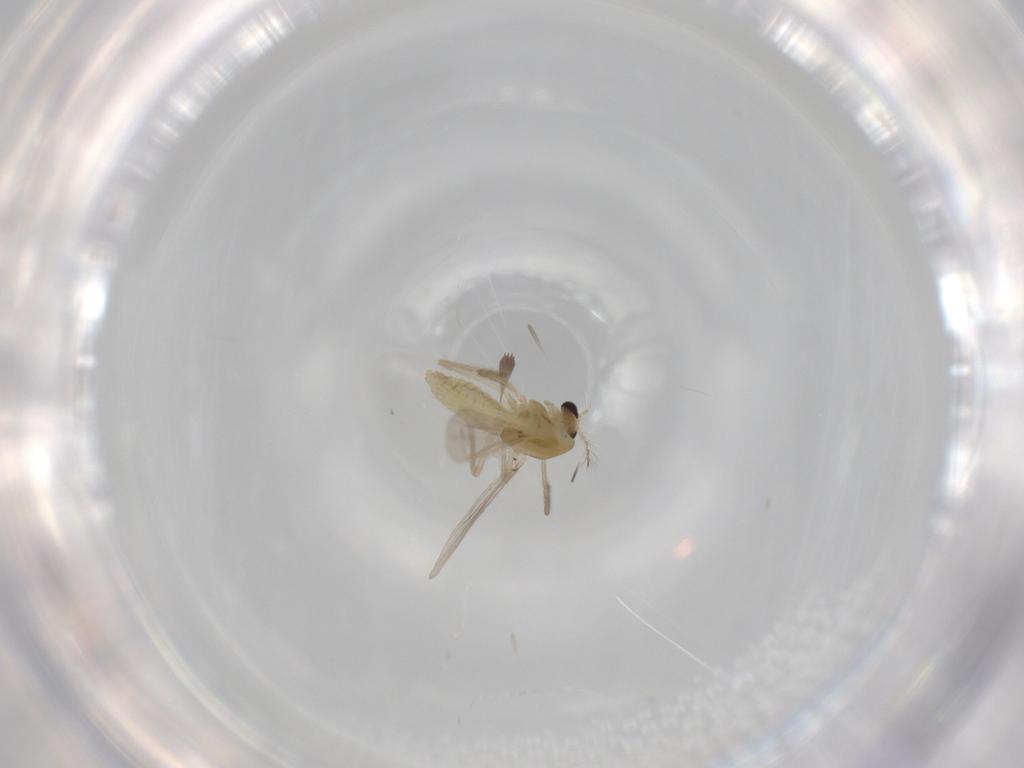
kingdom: Animalia
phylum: Arthropoda
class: Insecta
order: Diptera
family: Chironomidae
